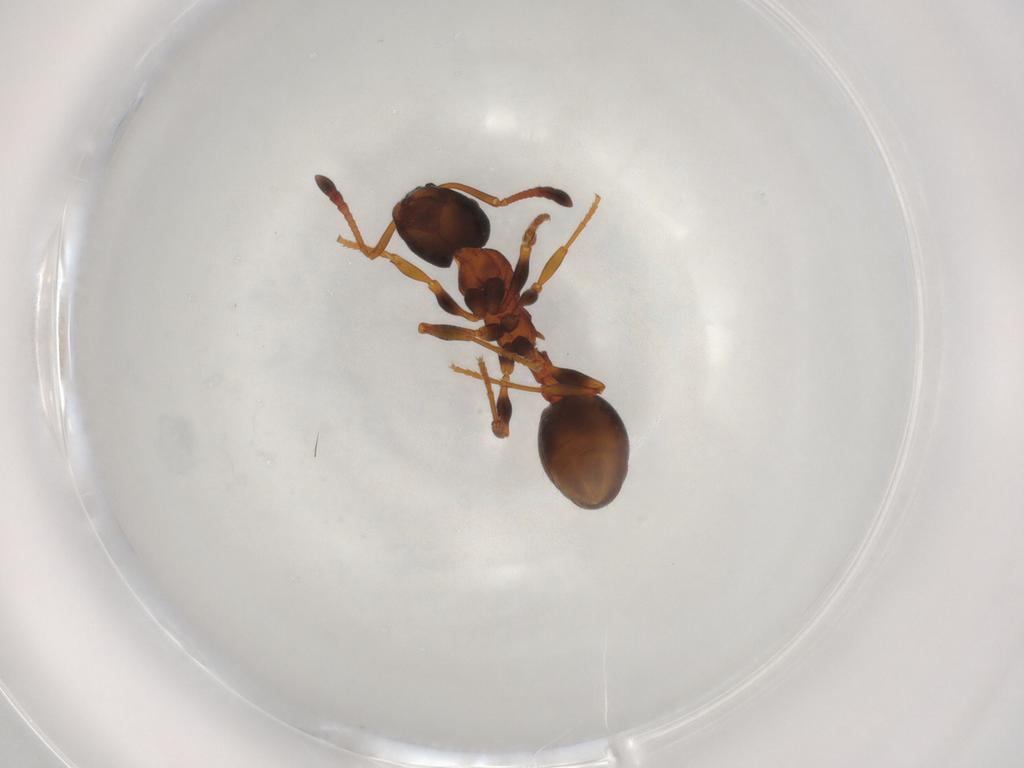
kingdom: Animalia
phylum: Arthropoda
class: Insecta
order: Hymenoptera
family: Formicidae
